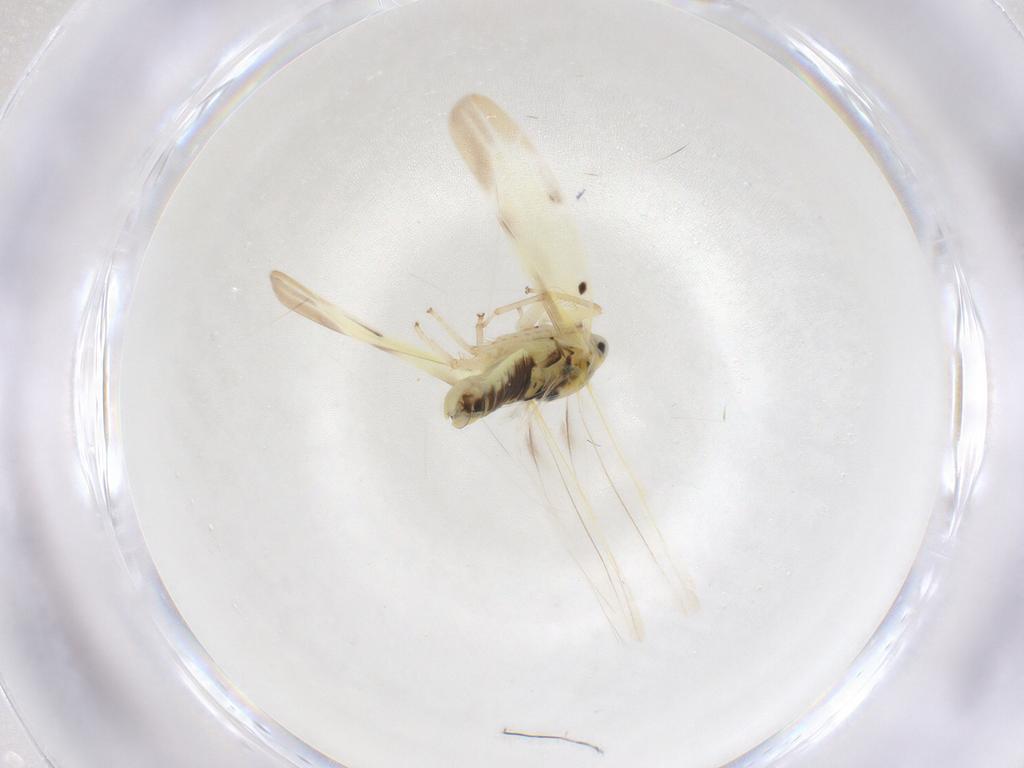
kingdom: Animalia
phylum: Arthropoda
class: Insecta
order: Hemiptera
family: Cicadellidae
